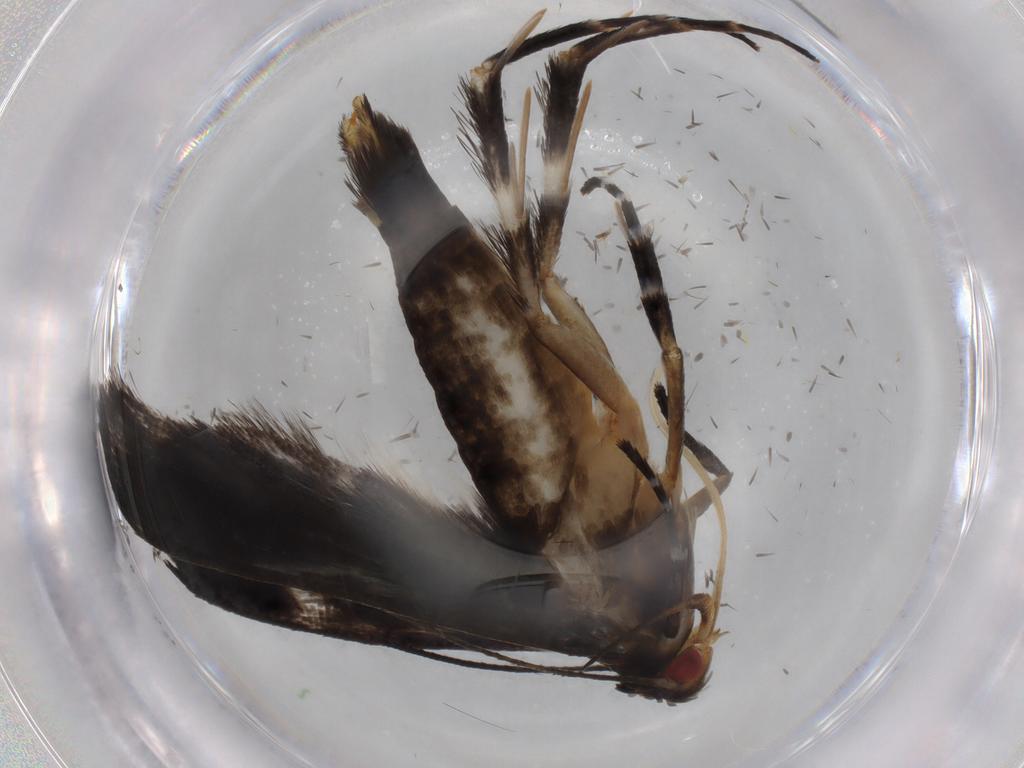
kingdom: Animalia
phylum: Arthropoda
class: Insecta
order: Lepidoptera
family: Gelechiidae
